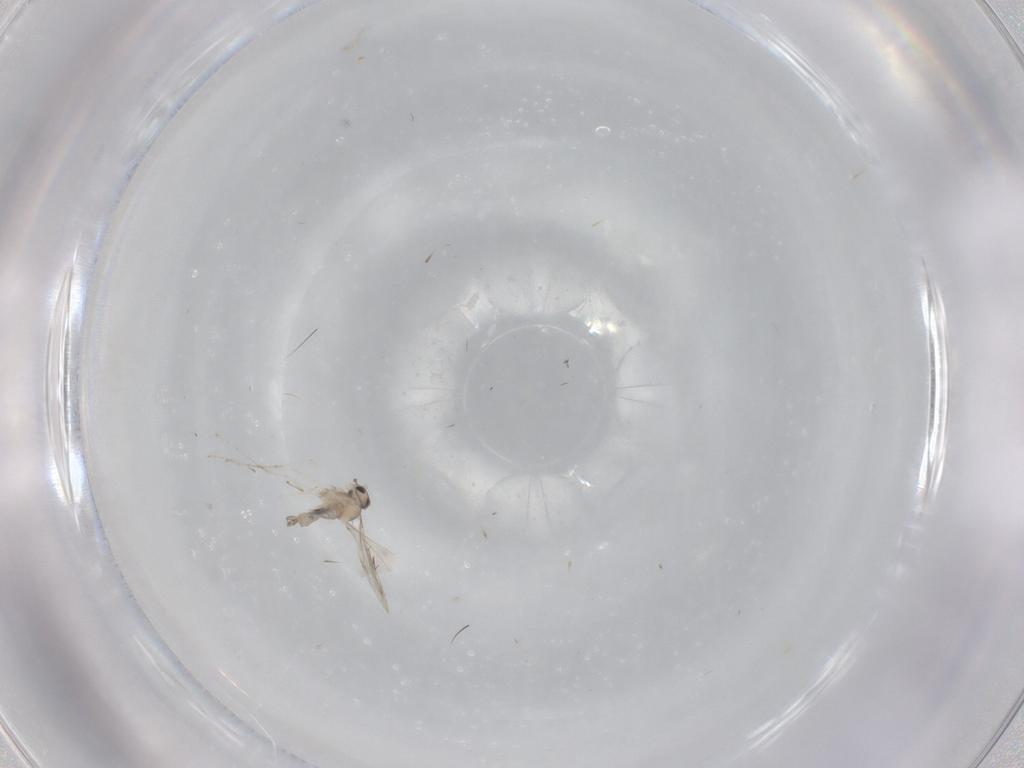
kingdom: Animalia
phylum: Arthropoda
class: Insecta
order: Diptera
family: Cecidomyiidae
